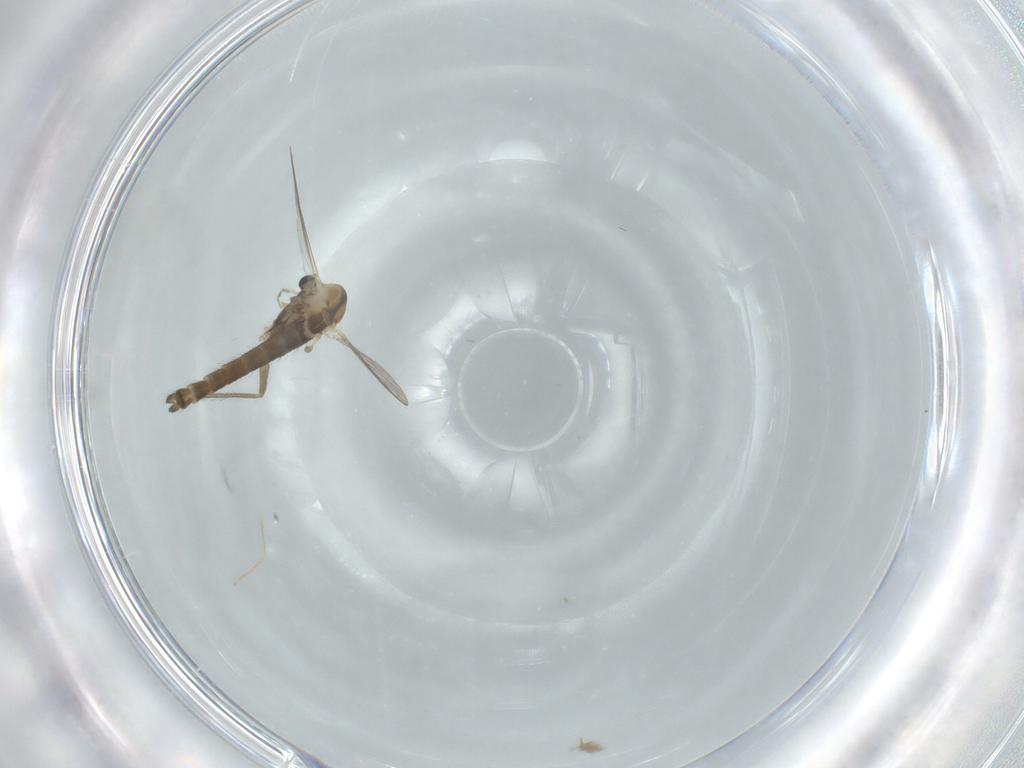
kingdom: Animalia
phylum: Arthropoda
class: Insecta
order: Diptera
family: Chironomidae
